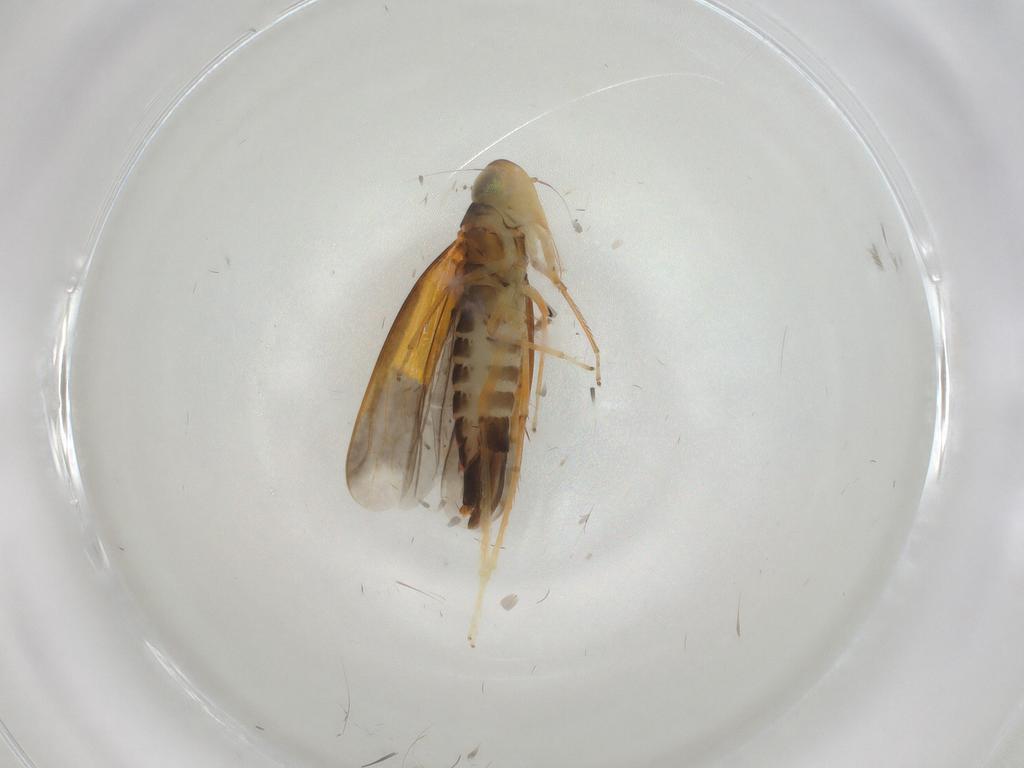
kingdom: Animalia
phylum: Arthropoda
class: Insecta
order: Hemiptera
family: Cicadellidae
